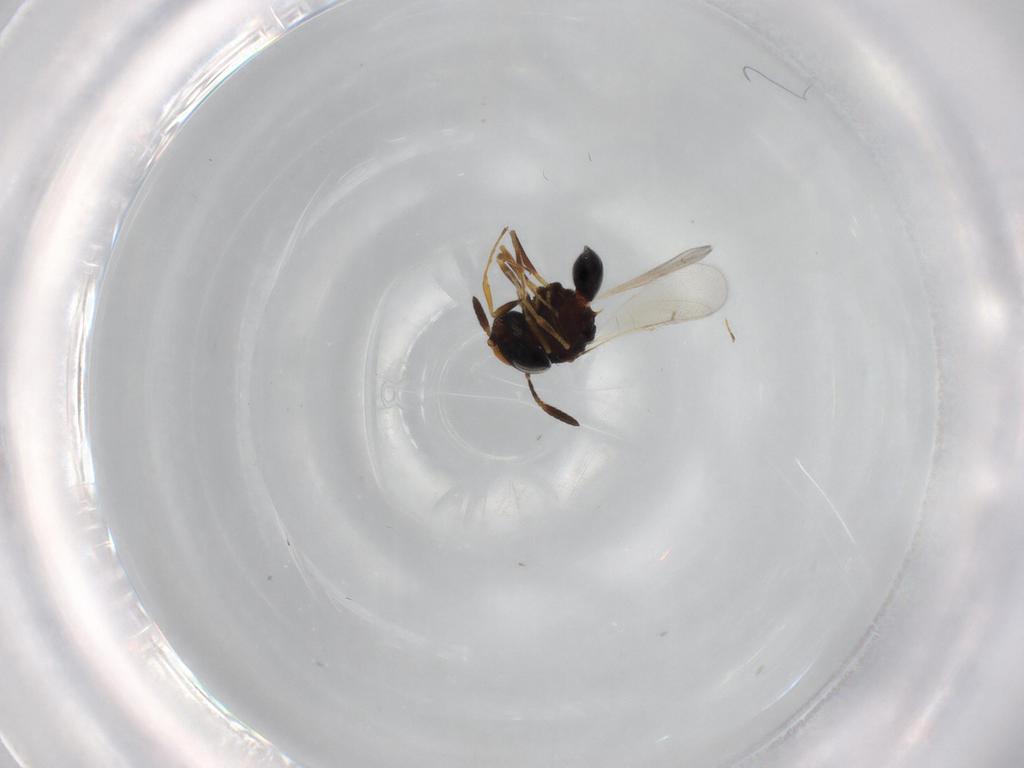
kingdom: Animalia
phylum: Arthropoda
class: Insecta
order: Hymenoptera
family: Scelionidae
